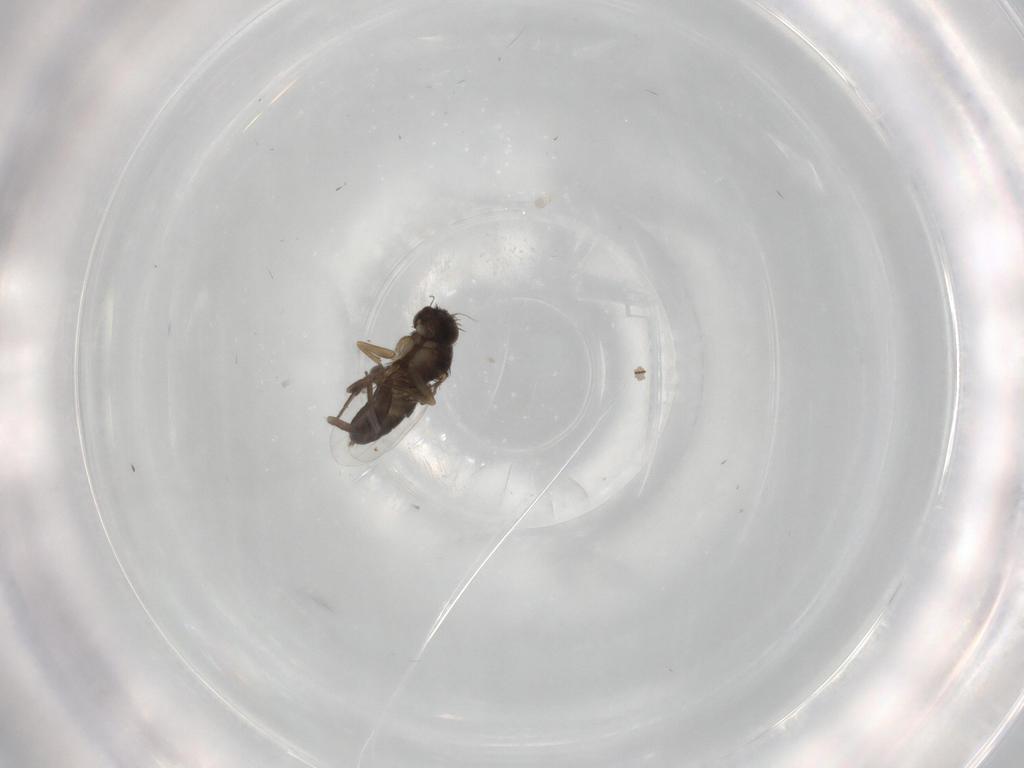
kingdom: Animalia
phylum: Arthropoda
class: Insecta
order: Diptera
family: Phoridae
